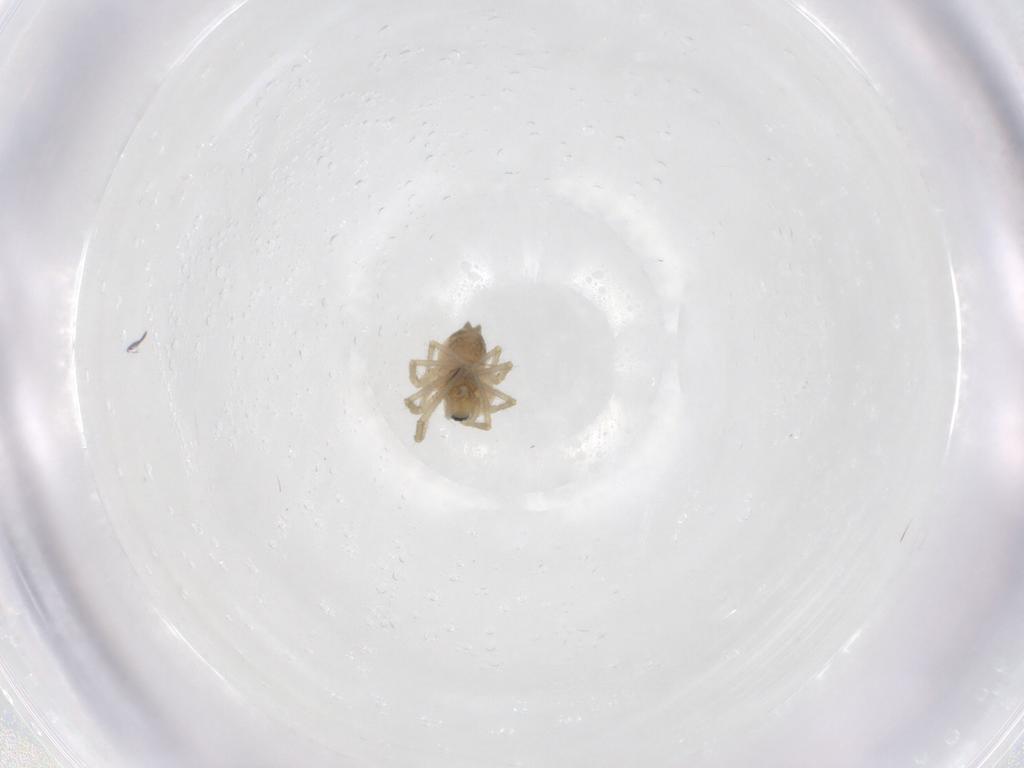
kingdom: Animalia
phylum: Arthropoda
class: Arachnida
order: Araneae
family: Linyphiidae
